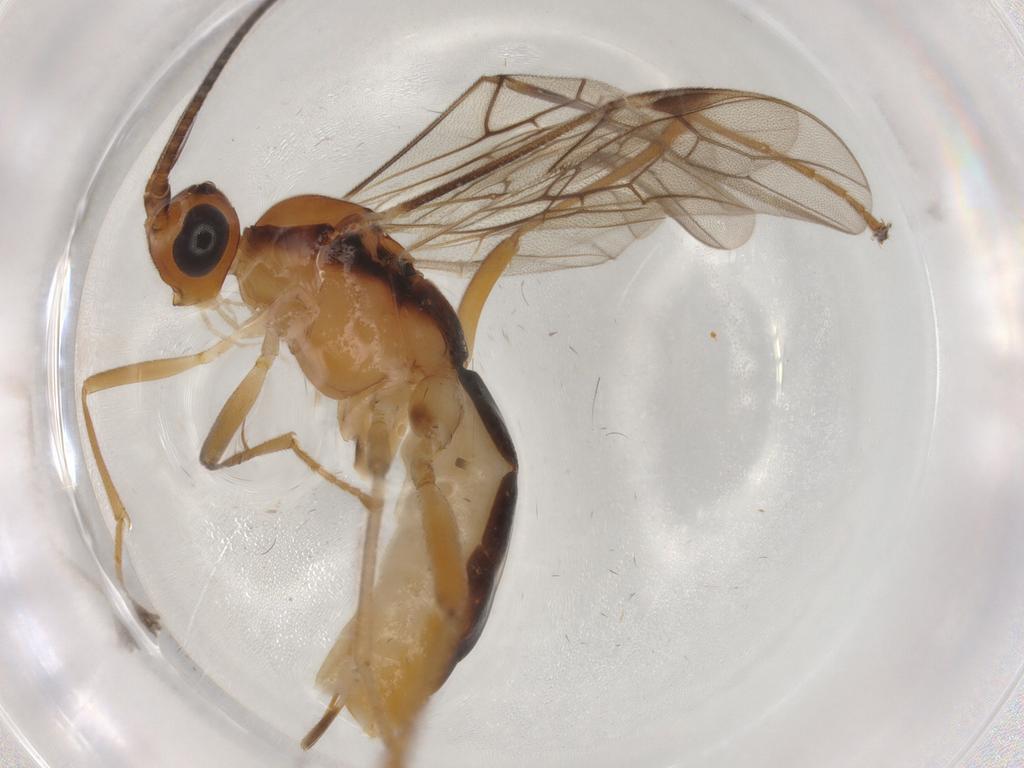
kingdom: Animalia
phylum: Arthropoda
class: Insecta
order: Hymenoptera
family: Scelionidae
